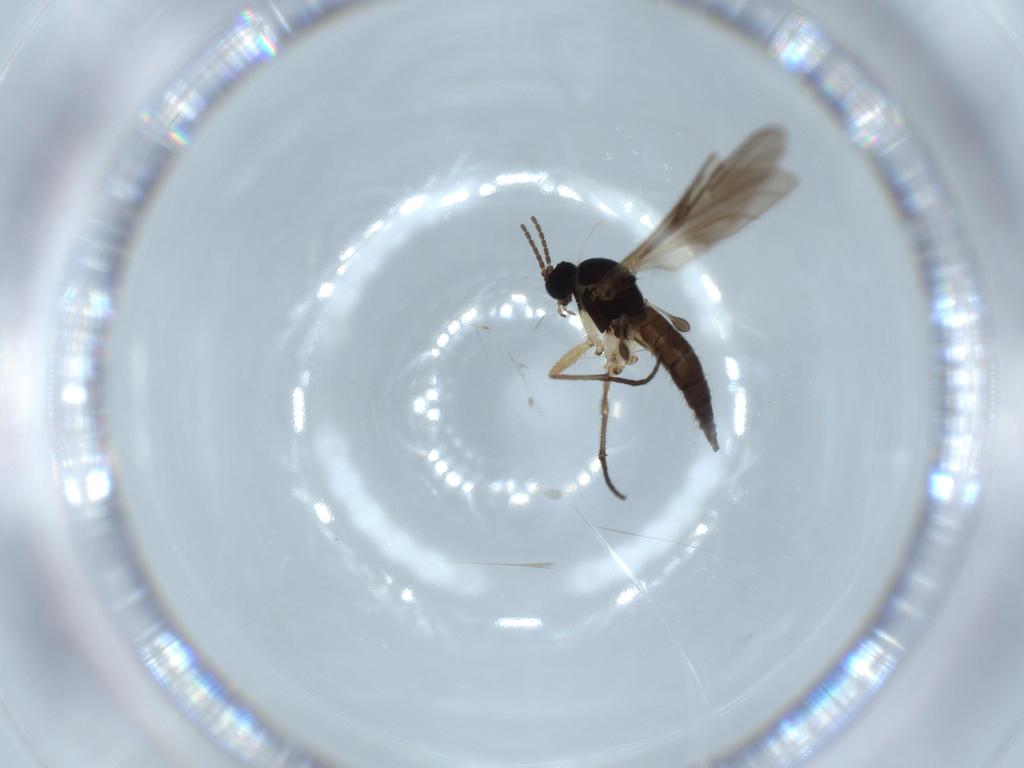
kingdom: Animalia
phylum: Arthropoda
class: Insecta
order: Diptera
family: Sciaridae
